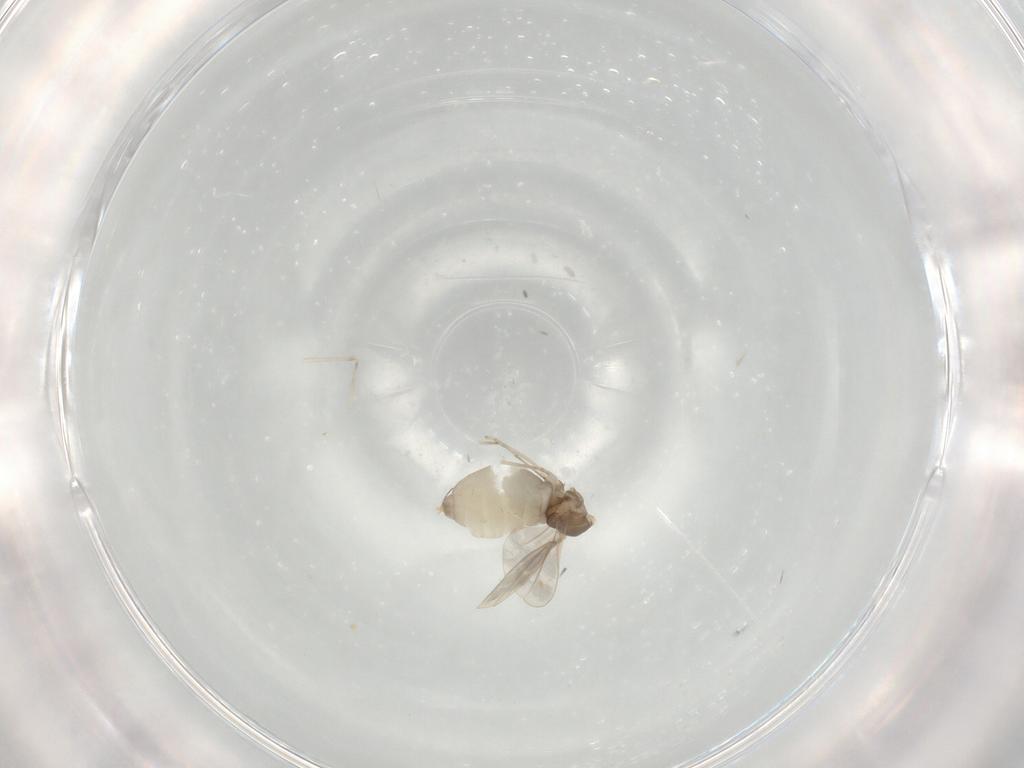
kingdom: Animalia
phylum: Arthropoda
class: Insecta
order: Diptera
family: Cecidomyiidae
